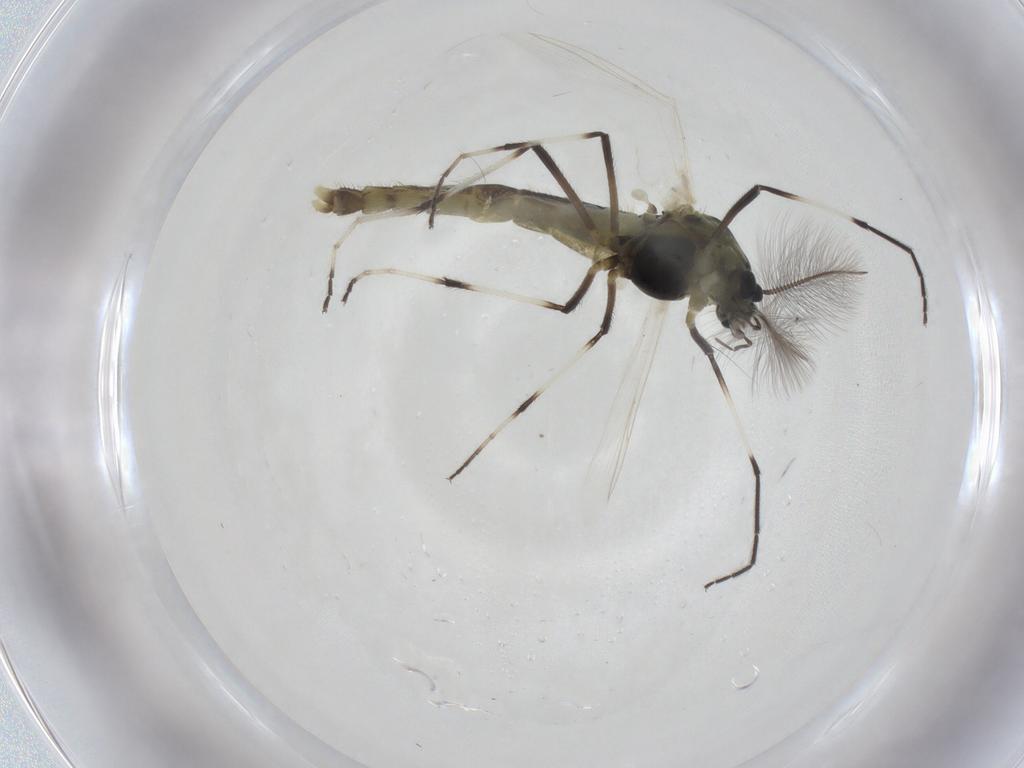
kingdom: Animalia
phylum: Arthropoda
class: Insecta
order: Diptera
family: Chironomidae
